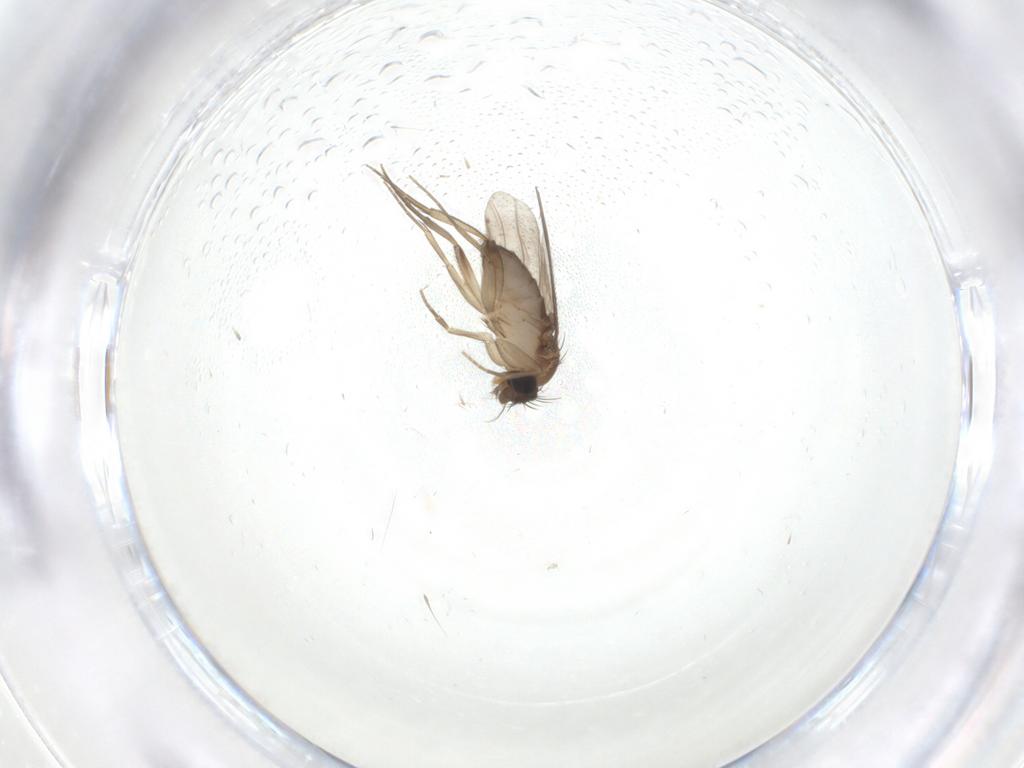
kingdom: Animalia
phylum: Arthropoda
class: Insecta
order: Diptera
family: Phoridae
